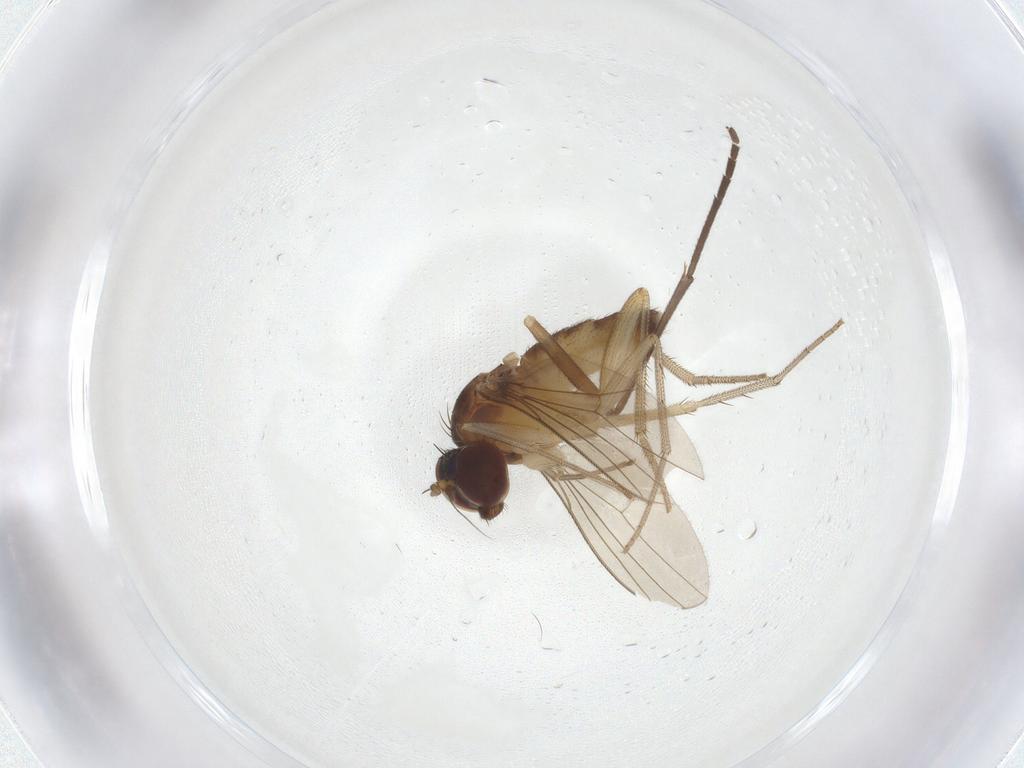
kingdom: Animalia
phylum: Arthropoda
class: Insecta
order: Diptera
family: Dolichopodidae
